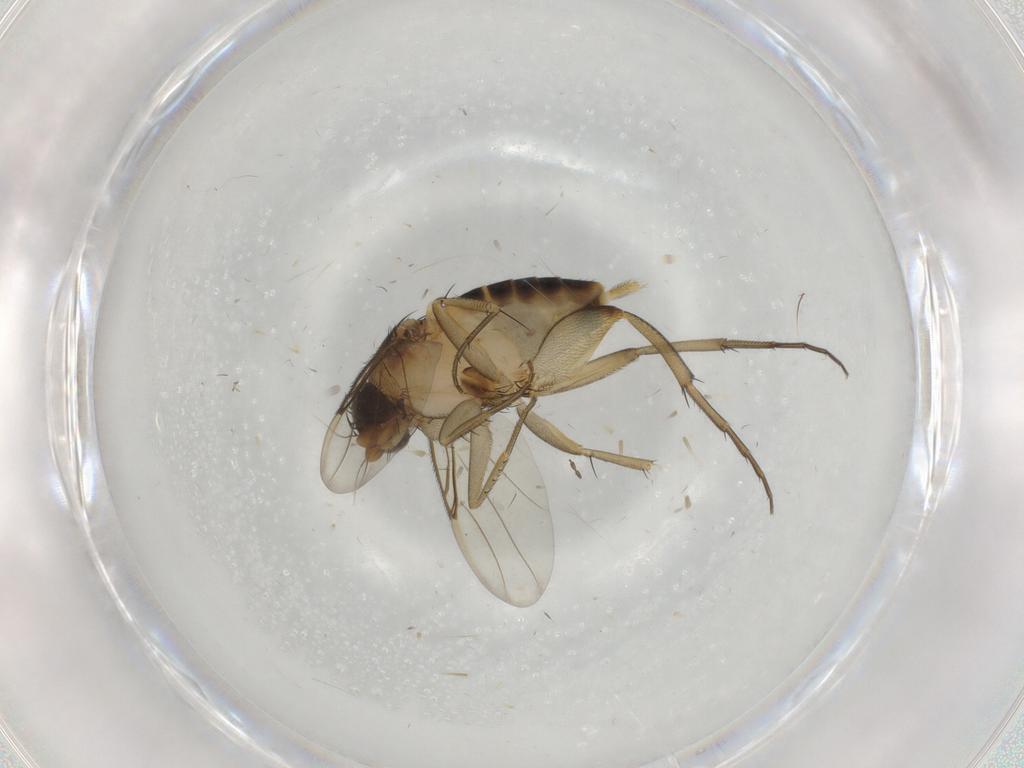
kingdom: Animalia
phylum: Arthropoda
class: Insecta
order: Diptera
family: Phoridae
